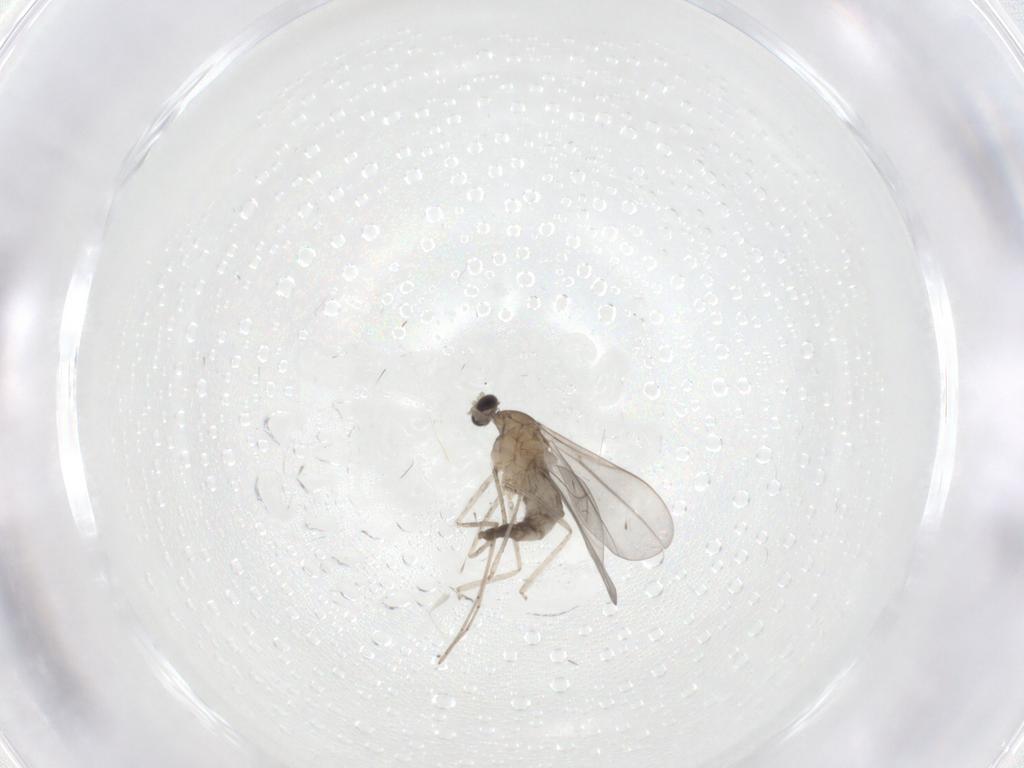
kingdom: Animalia
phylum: Arthropoda
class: Insecta
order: Diptera
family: Cecidomyiidae
